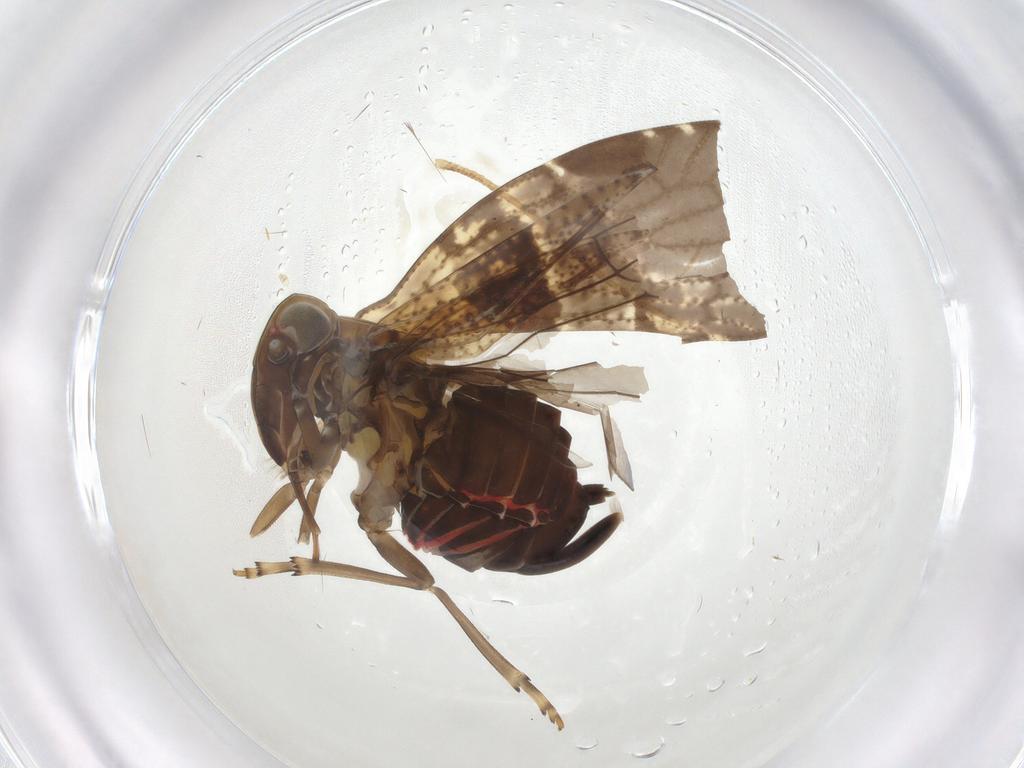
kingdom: Animalia
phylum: Arthropoda
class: Insecta
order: Hemiptera
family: Cixiidae
